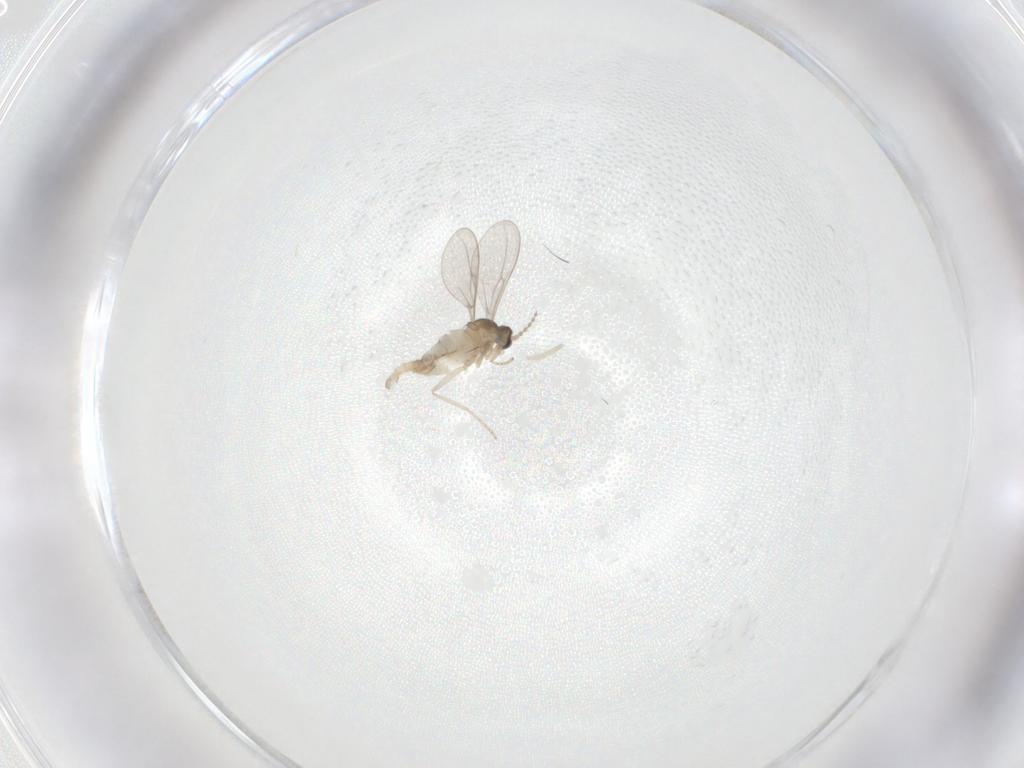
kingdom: Animalia
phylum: Arthropoda
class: Insecta
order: Diptera
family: Cecidomyiidae
